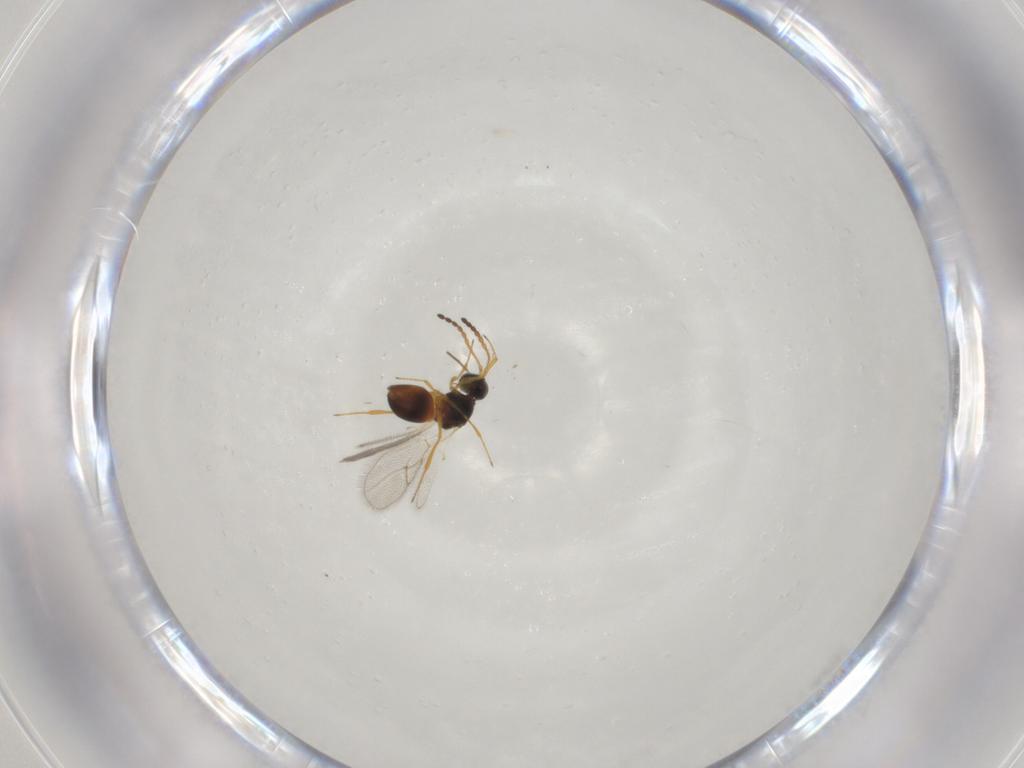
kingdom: Animalia
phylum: Arthropoda
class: Insecta
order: Hymenoptera
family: Figitidae
